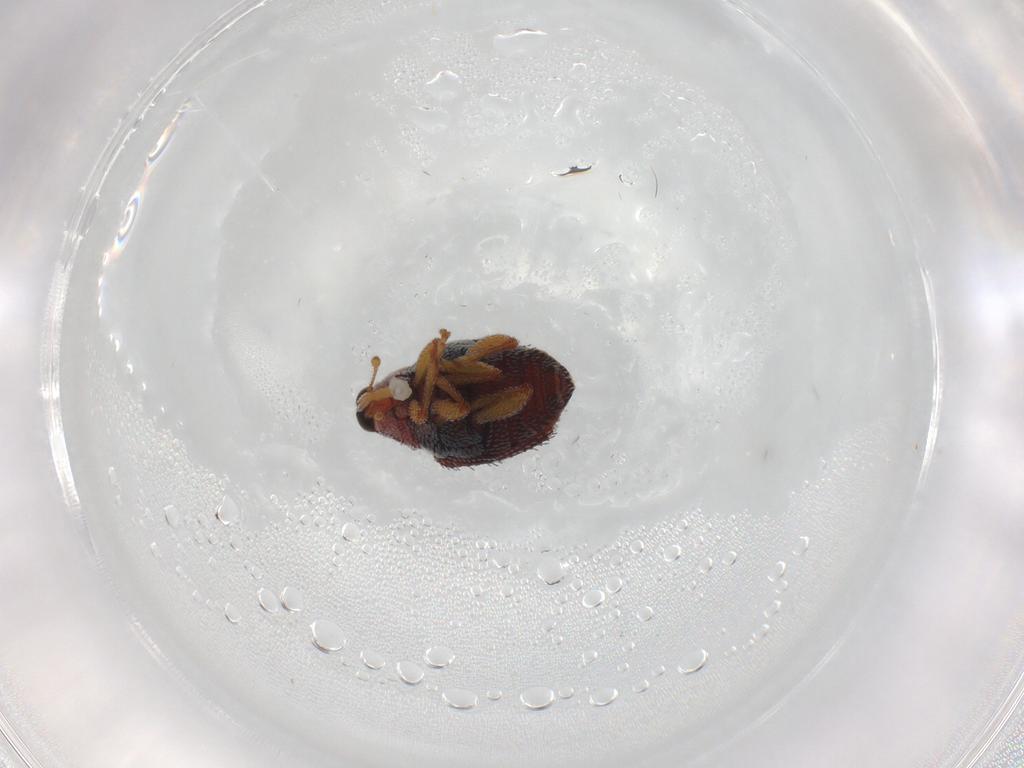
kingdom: Animalia
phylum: Arthropoda
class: Insecta
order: Coleoptera
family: Curculionidae
